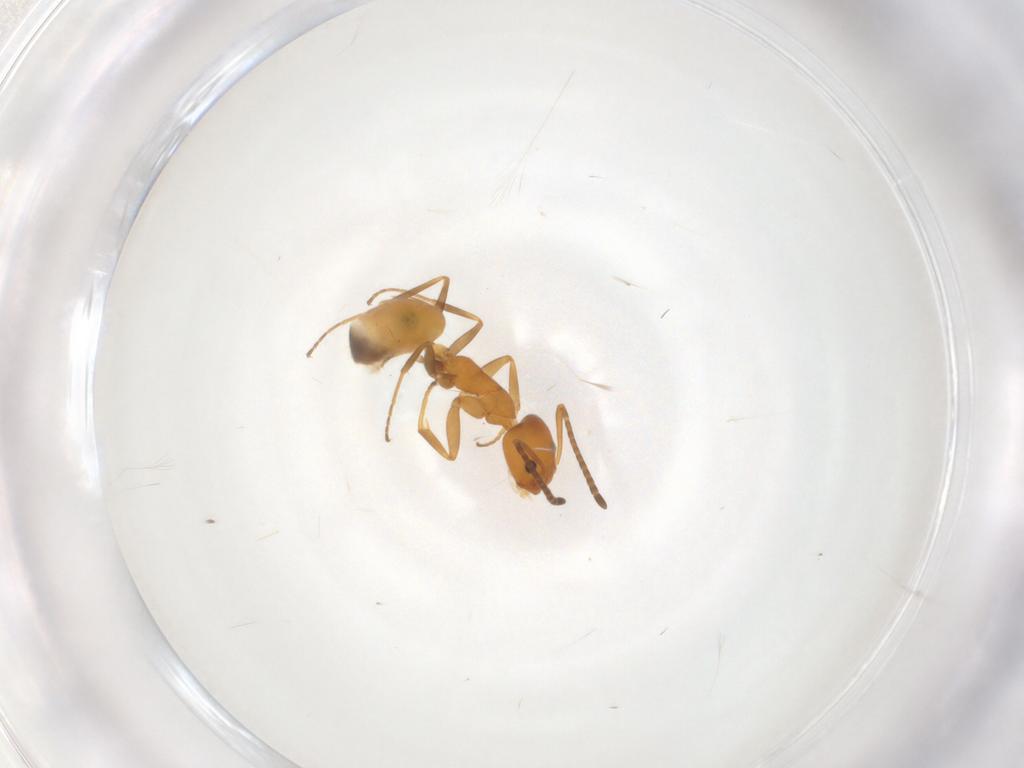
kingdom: Animalia
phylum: Arthropoda
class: Insecta
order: Hymenoptera
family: Formicidae
